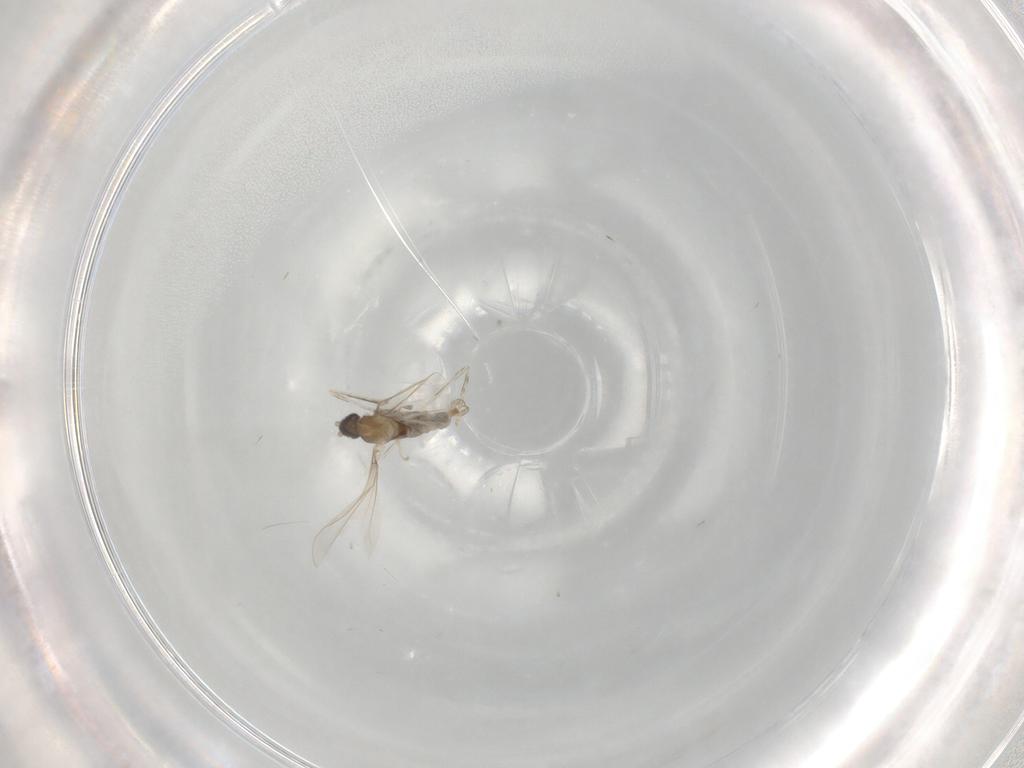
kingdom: Animalia
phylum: Arthropoda
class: Insecta
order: Diptera
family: Cecidomyiidae
